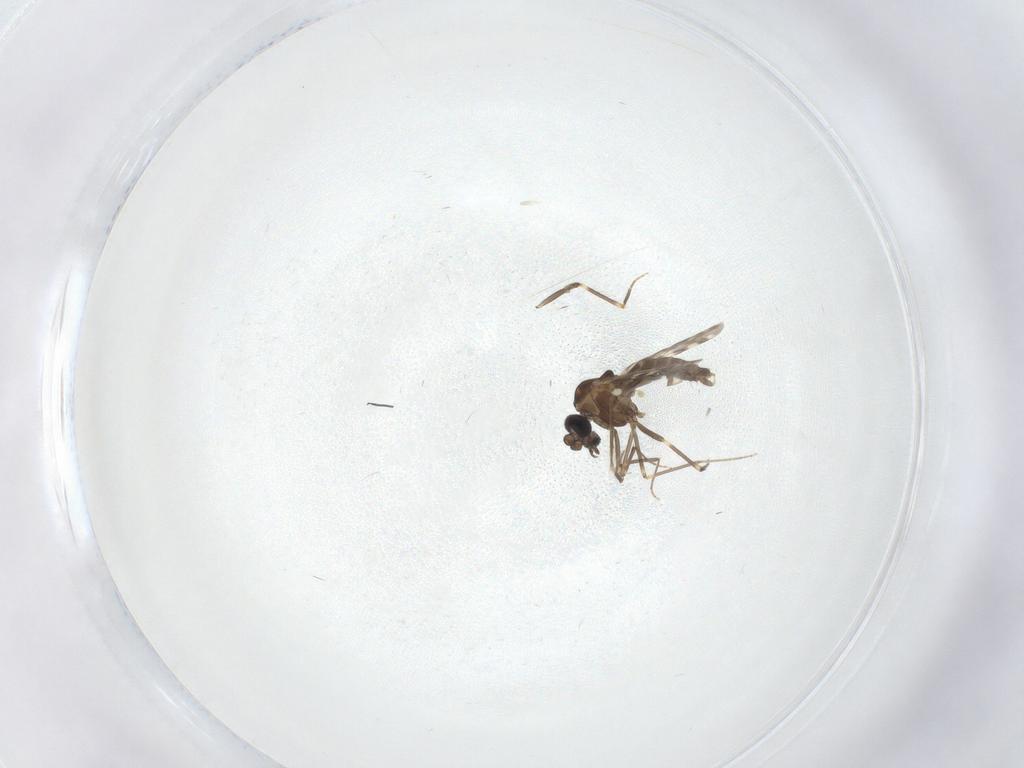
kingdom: Animalia
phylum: Arthropoda
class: Insecta
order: Diptera
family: Ceratopogonidae
